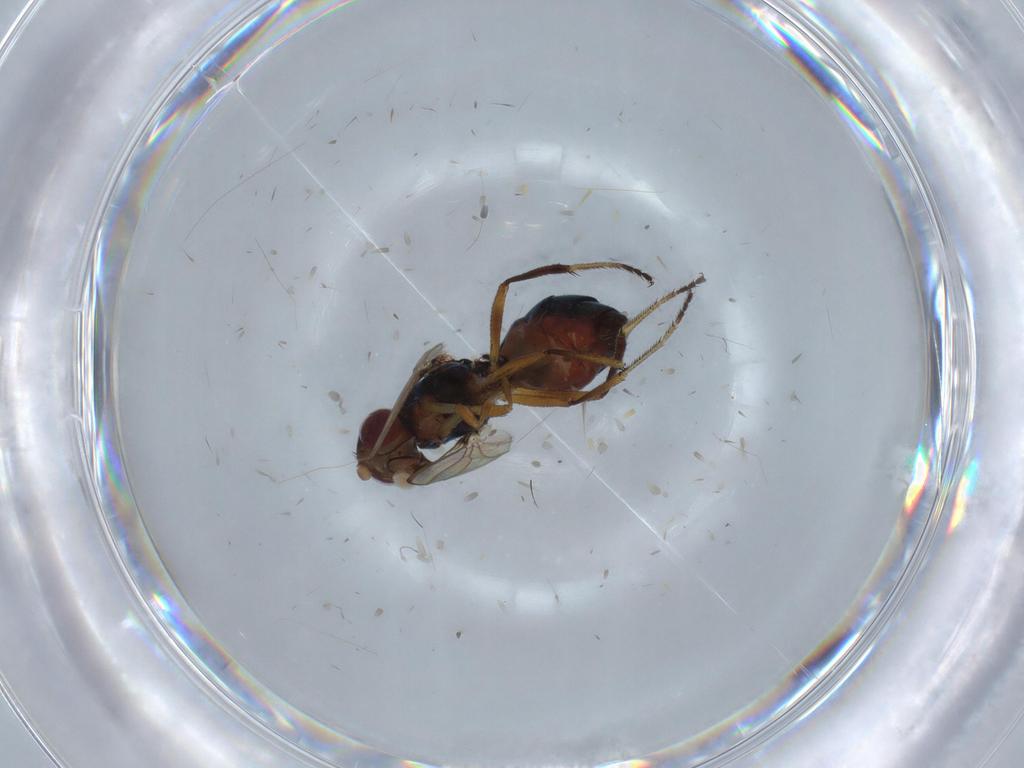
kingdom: Animalia
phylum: Arthropoda
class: Insecta
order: Diptera
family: Sepsidae
